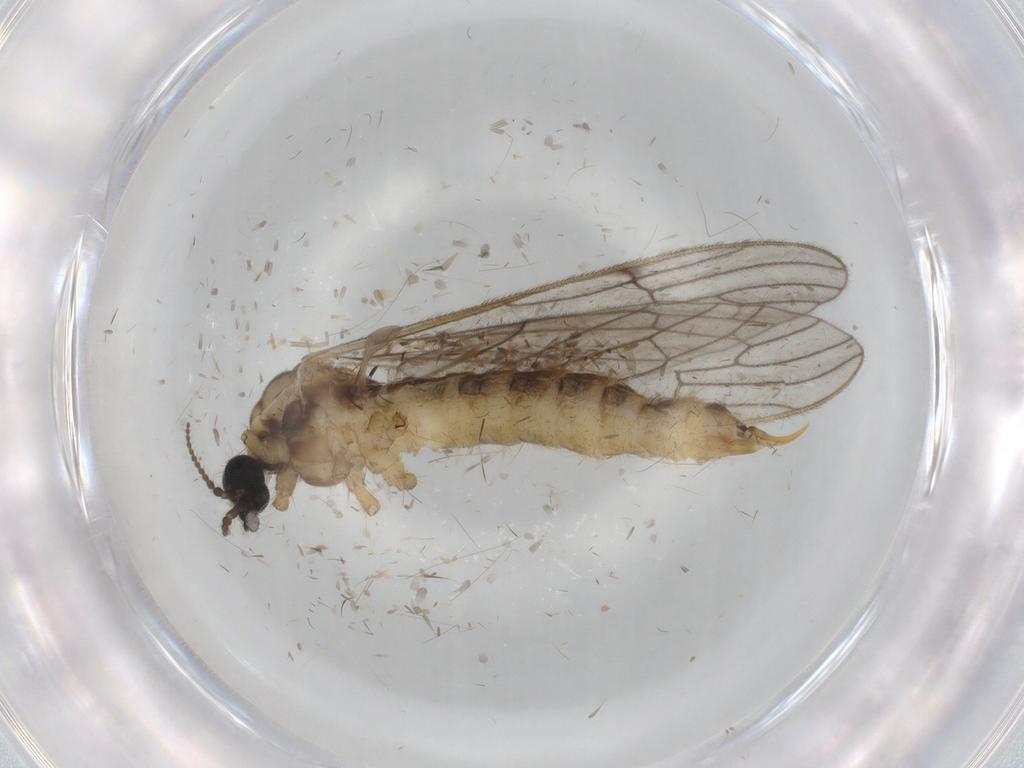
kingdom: Animalia
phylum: Arthropoda
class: Insecta
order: Diptera
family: Limoniidae
